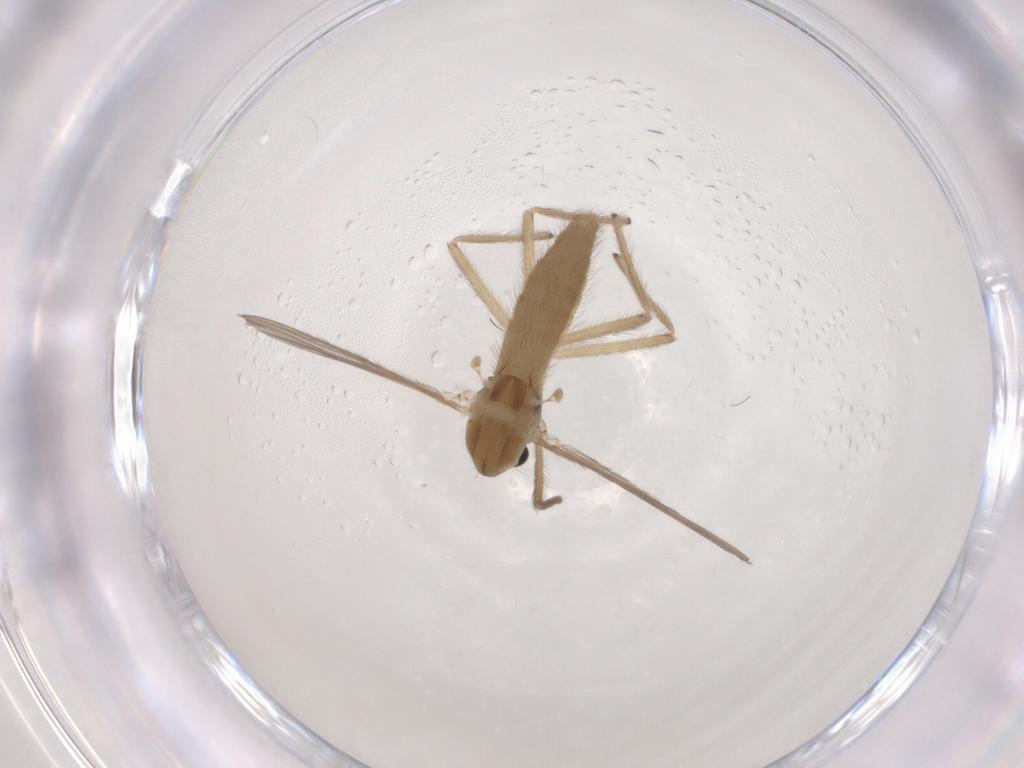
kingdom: Animalia
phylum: Arthropoda
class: Insecta
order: Diptera
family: Chironomidae
